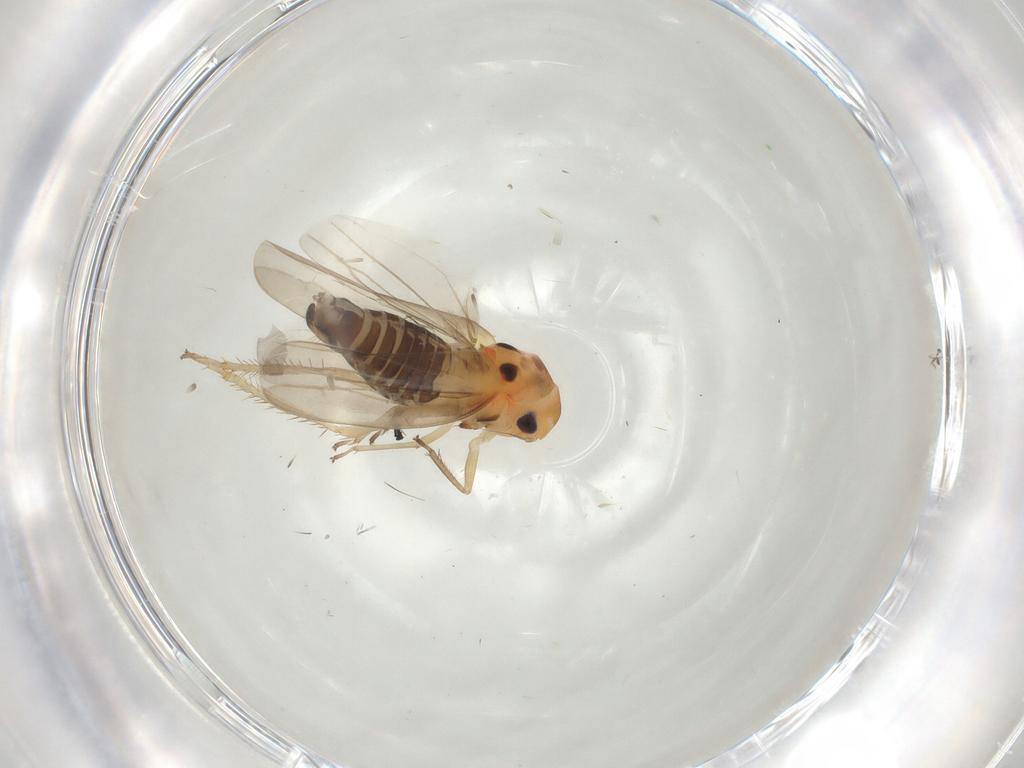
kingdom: Animalia
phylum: Arthropoda
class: Insecta
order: Hemiptera
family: Cicadellidae
